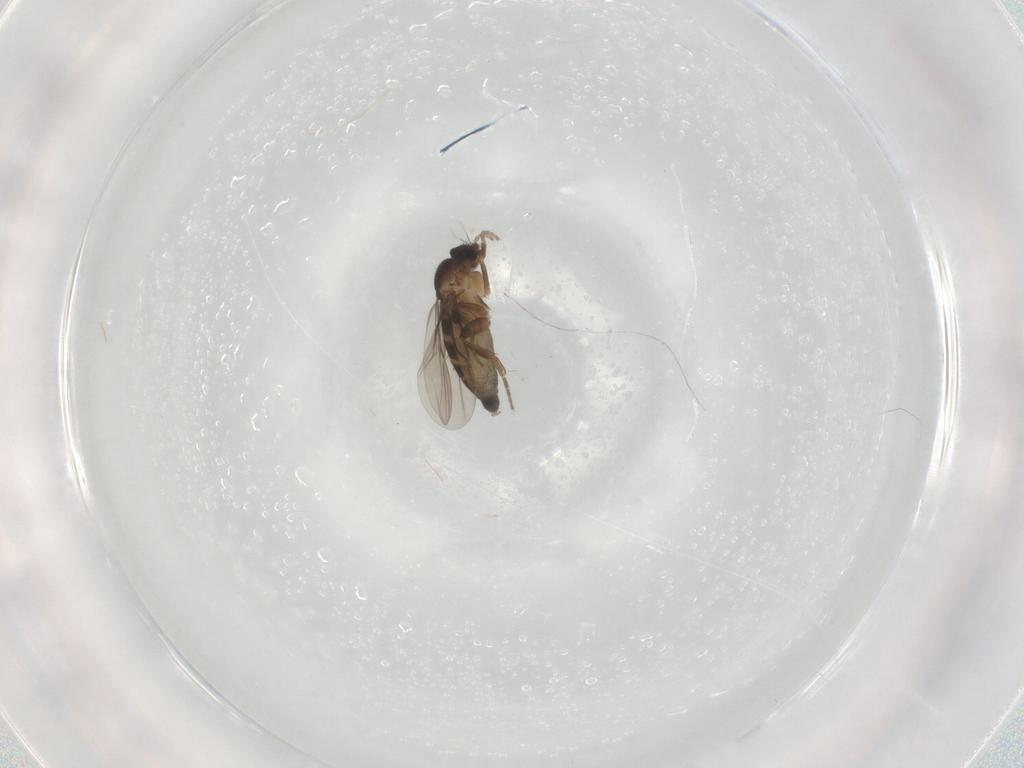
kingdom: Animalia
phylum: Arthropoda
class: Insecta
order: Diptera
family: Phoridae
